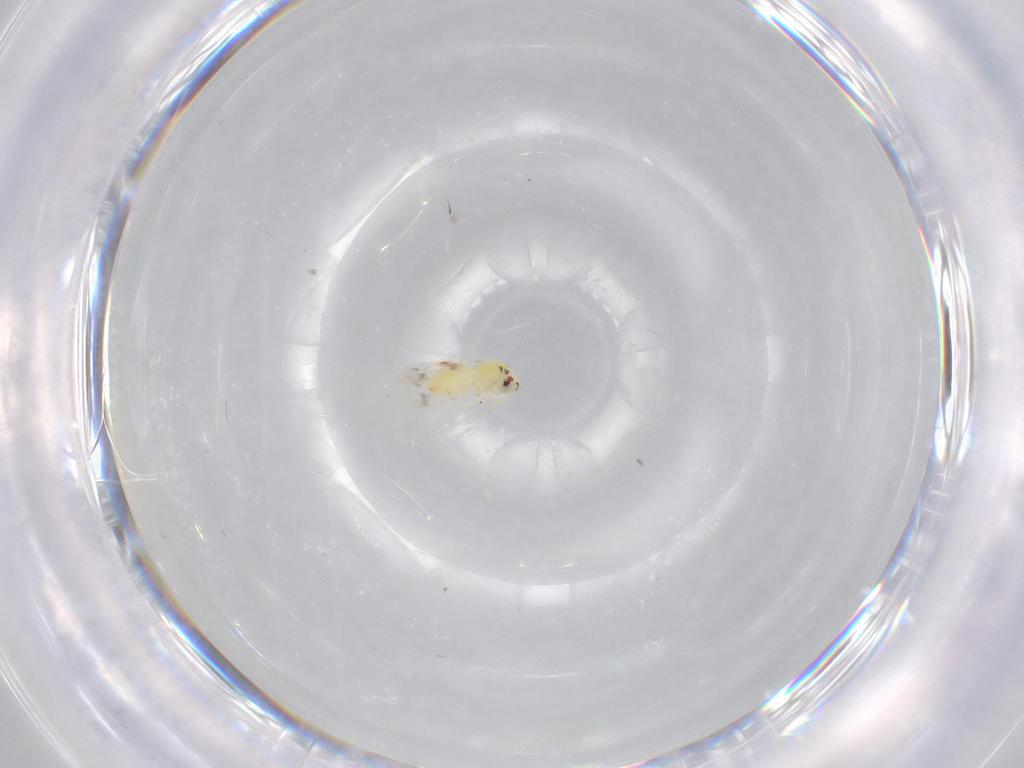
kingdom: Animalia
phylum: Arthropoda
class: Insecta
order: Hemiptera
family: Aleyrodidae
